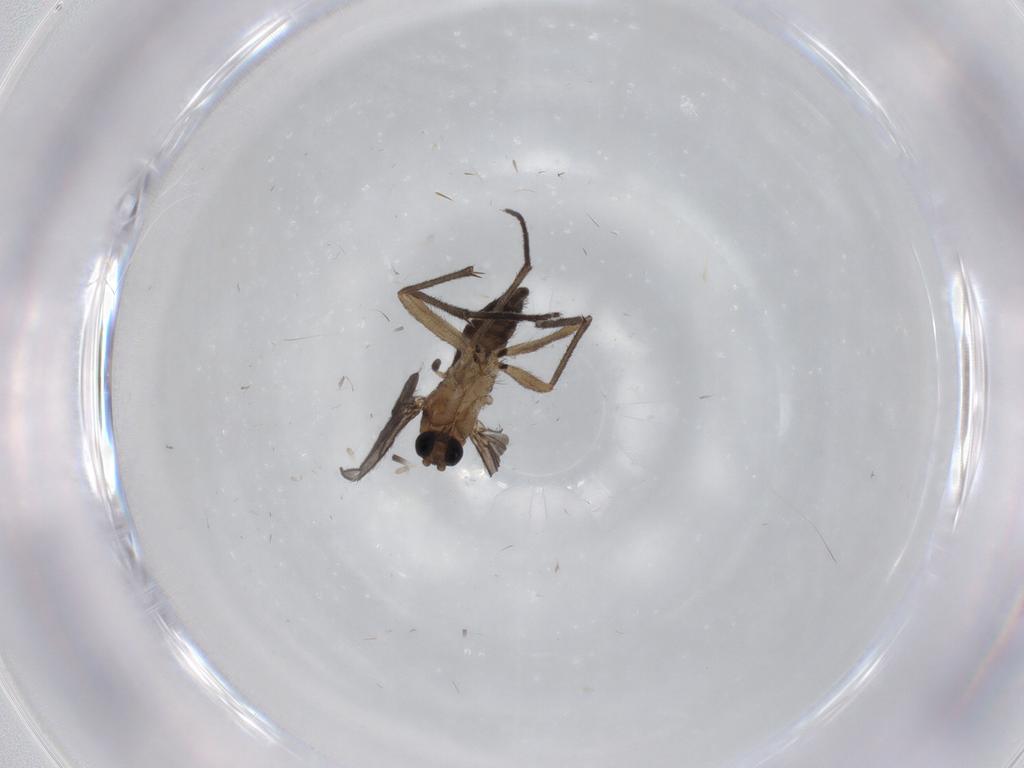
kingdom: Animalia
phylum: Arthropoda
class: Insecta
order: Diptera
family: Sciaridae
